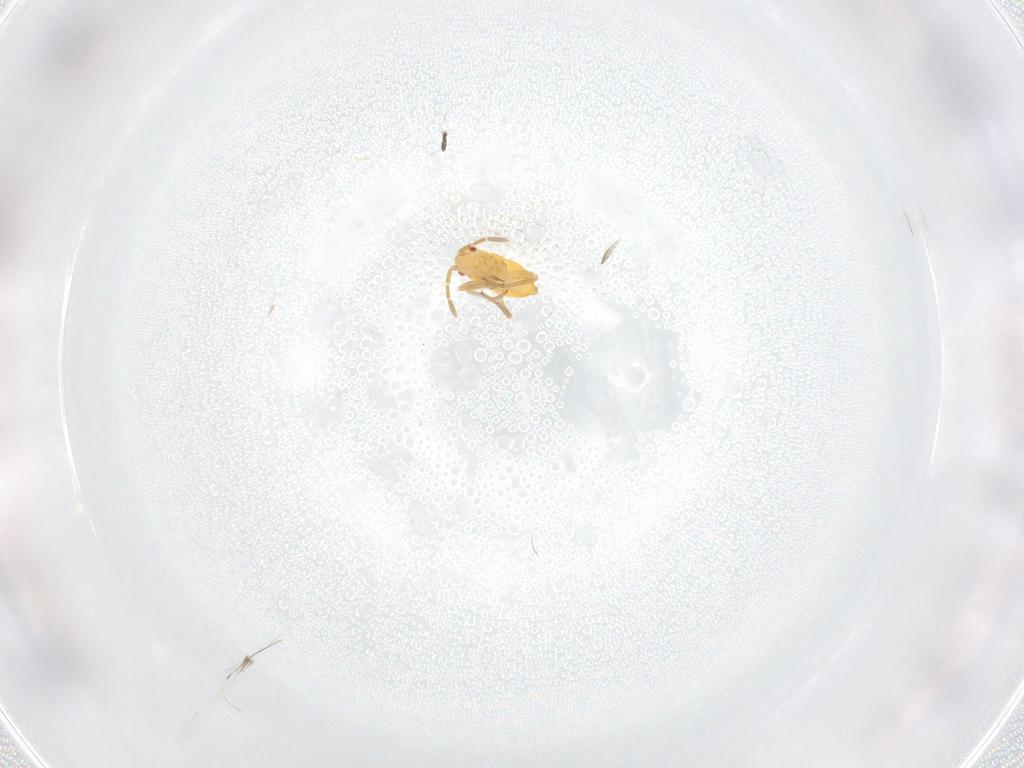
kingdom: Animalia
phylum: Arthropoda
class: Insecta
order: Hemiptera
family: Miridae
